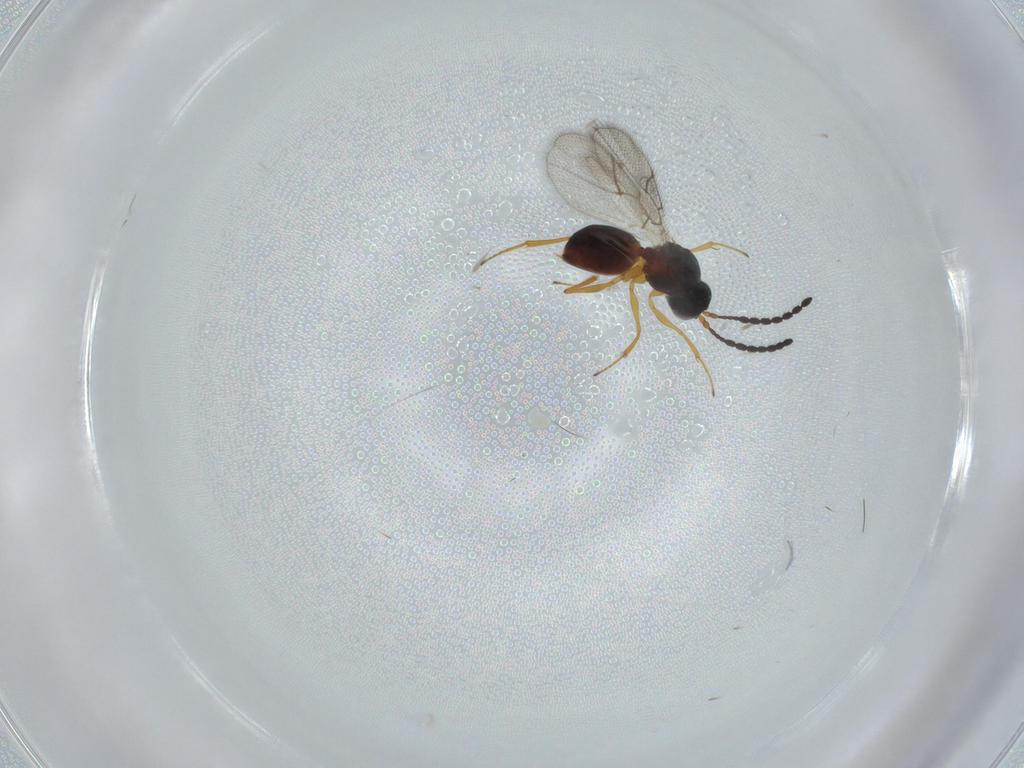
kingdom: Animalia
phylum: Arthropoda
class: Insecta
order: Hymenoptera
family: Figitidae
